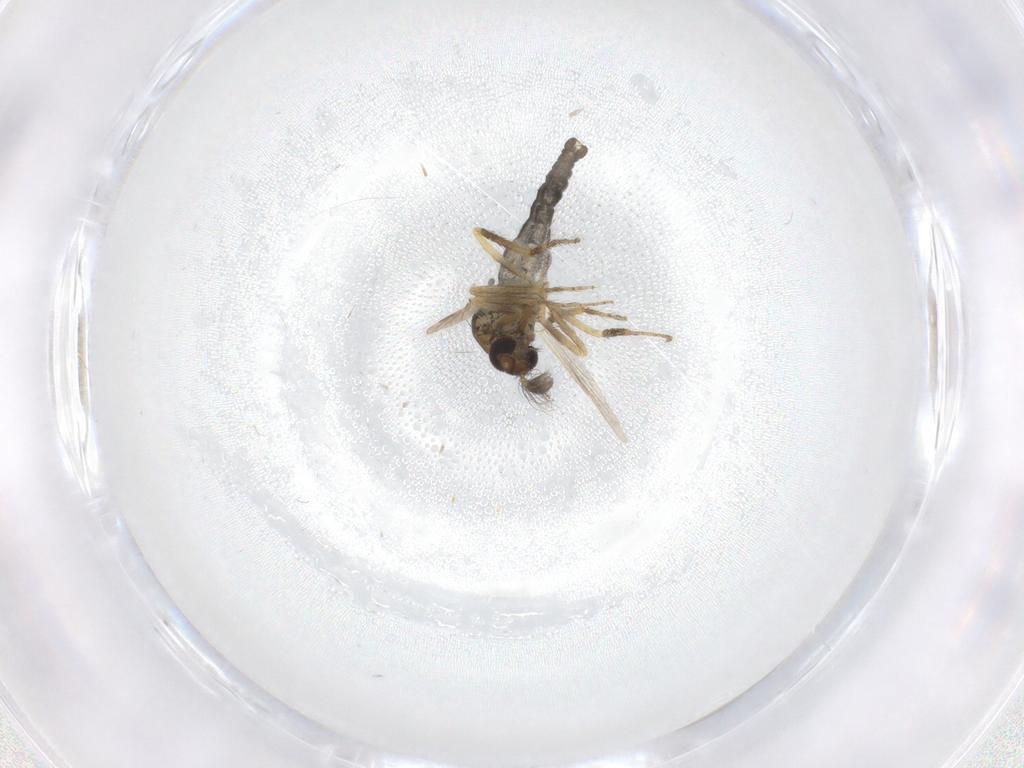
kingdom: Animalia
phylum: Arthropoda
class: Insecta
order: Diptera
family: Ceratopogonidae
